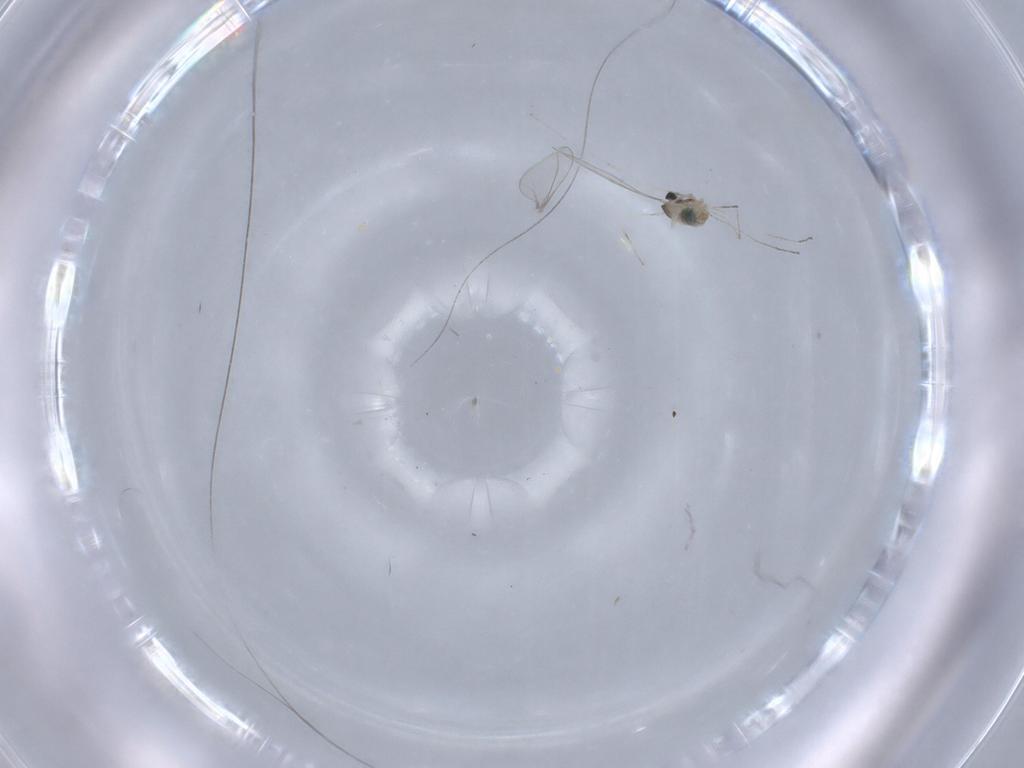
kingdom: Animalia
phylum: Arthropoda
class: Insecta
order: Diptera
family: Cecidomyiidae
